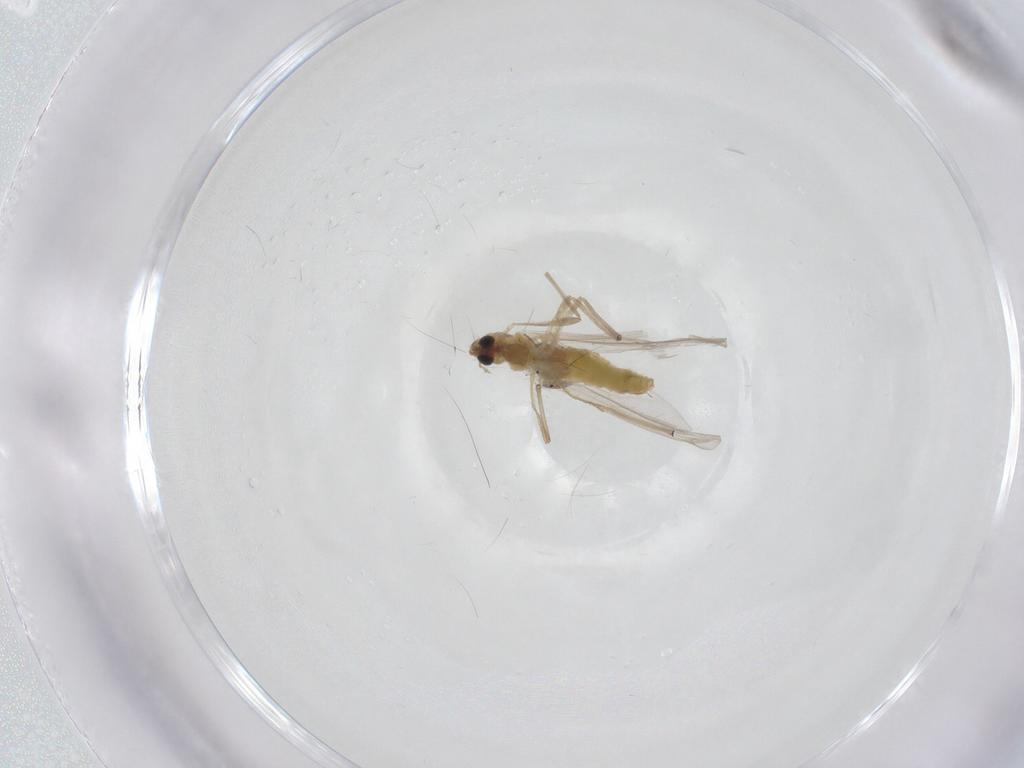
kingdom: Animalia
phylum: Arthropoda
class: Insecta
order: Diptera
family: Chironomidae
